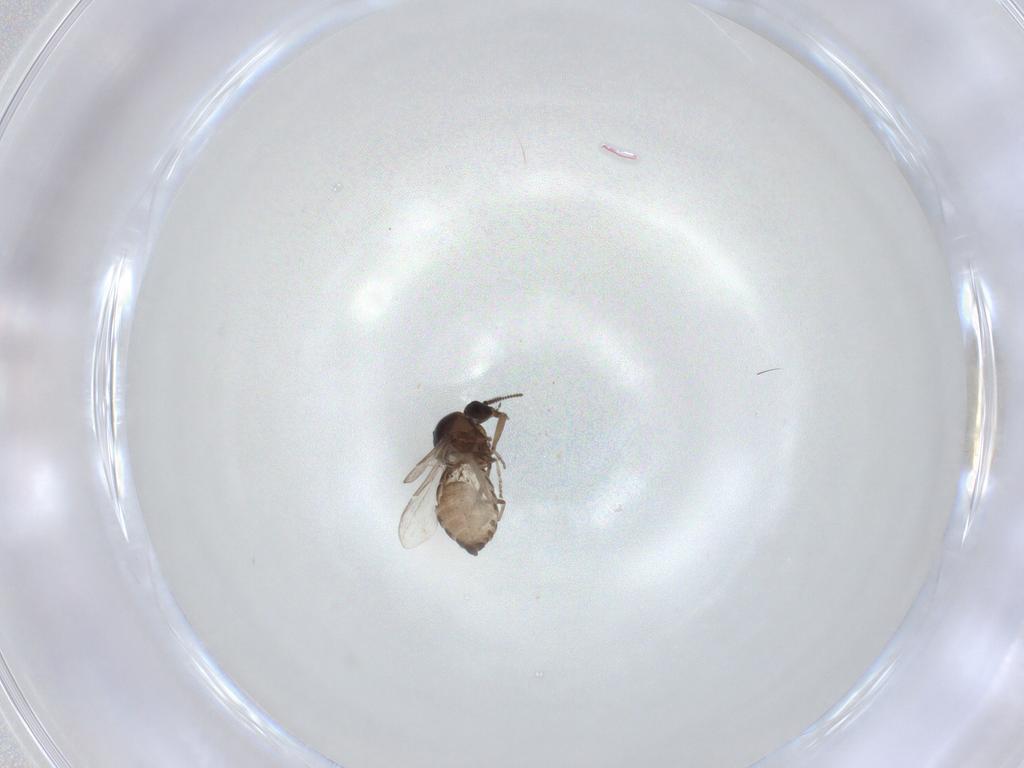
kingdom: Animalia
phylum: Arthropoda
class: Insecta
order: Diptera
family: Ceratopogonidae
